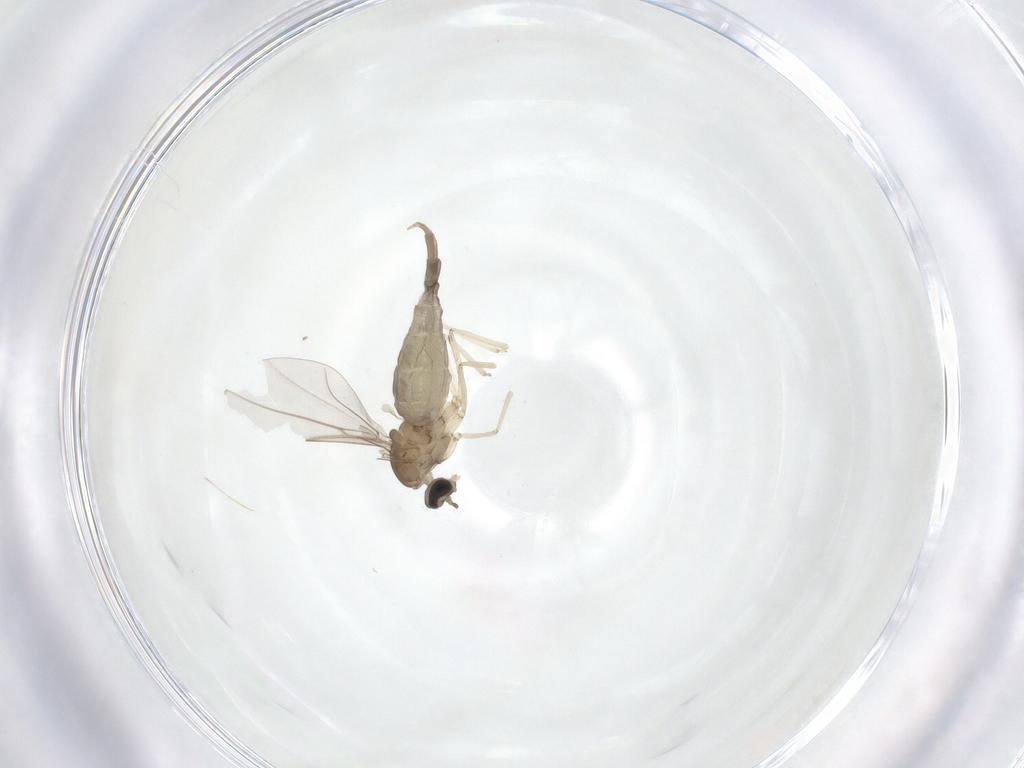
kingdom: Animalia
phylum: Arthropoda
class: Insecta
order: Diptera
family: Cecidomyiidae
